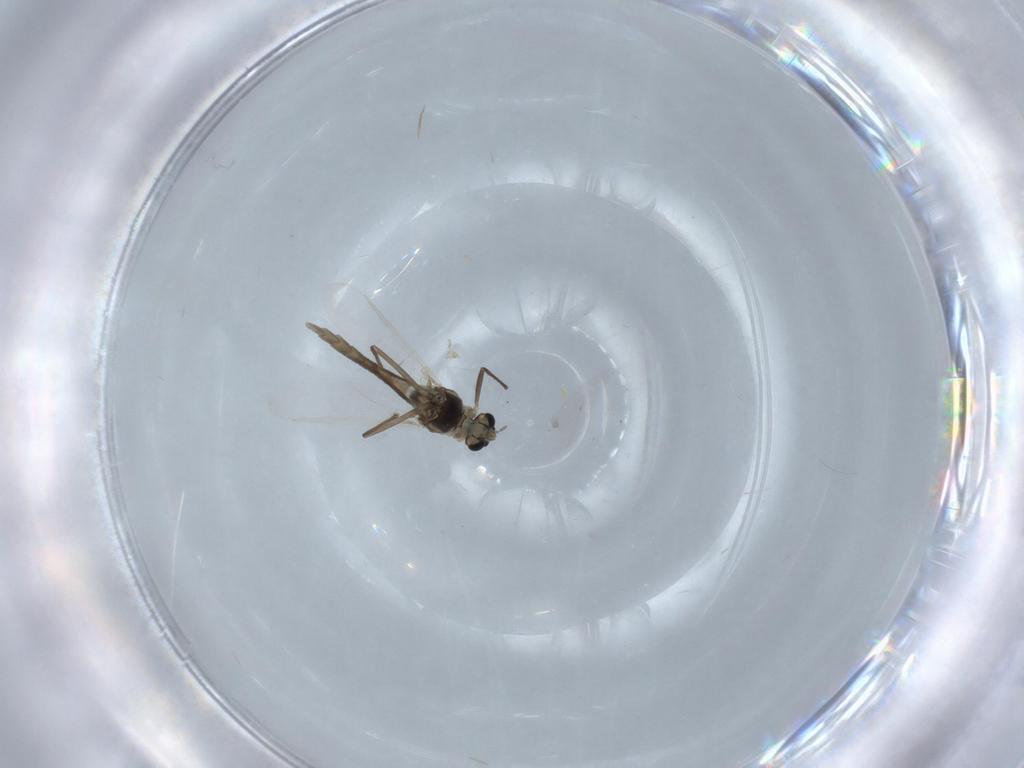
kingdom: Animalia
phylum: Arthropoda
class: Insecta
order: Diptera
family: Chironomidae
